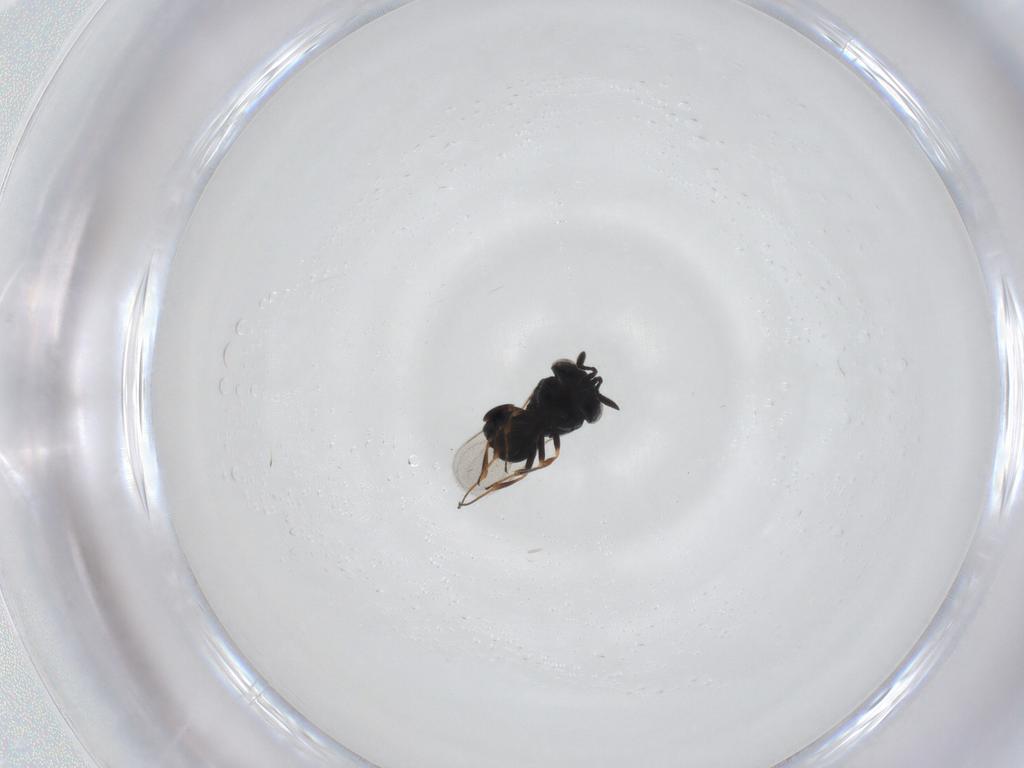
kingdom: Animalia
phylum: Arthropoda
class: Insecta
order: Hymenoptera
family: Scelionidae
